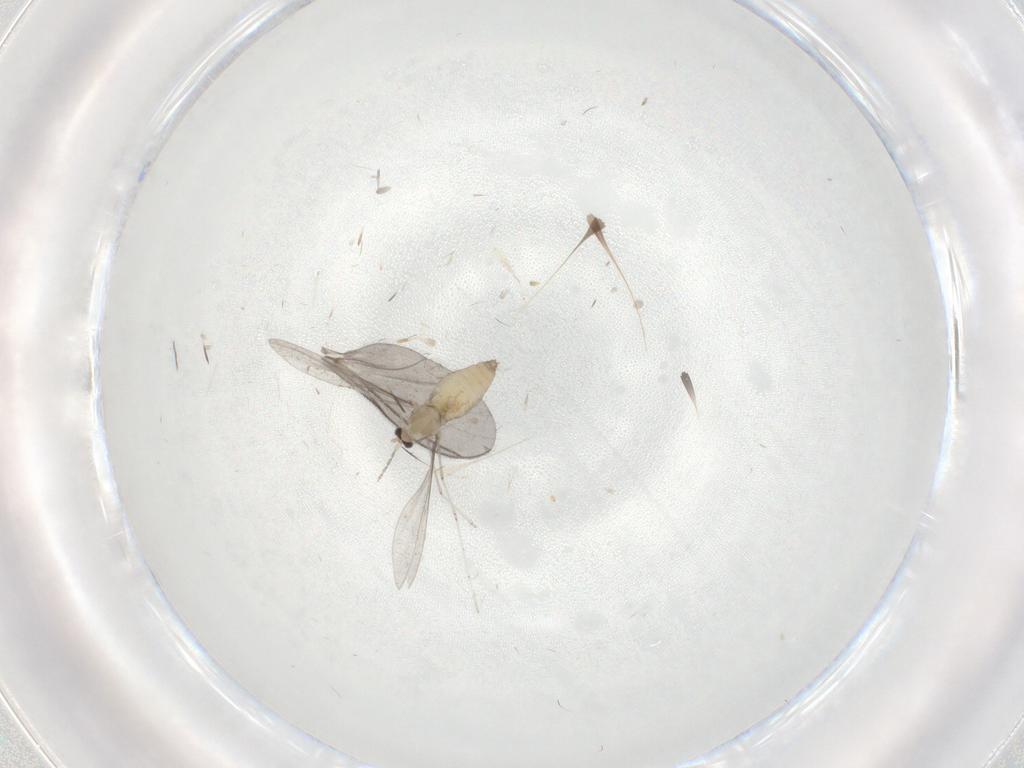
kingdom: Animalia
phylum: Arthropoda
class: Insecta
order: Diptera
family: Cecidomyiidae
